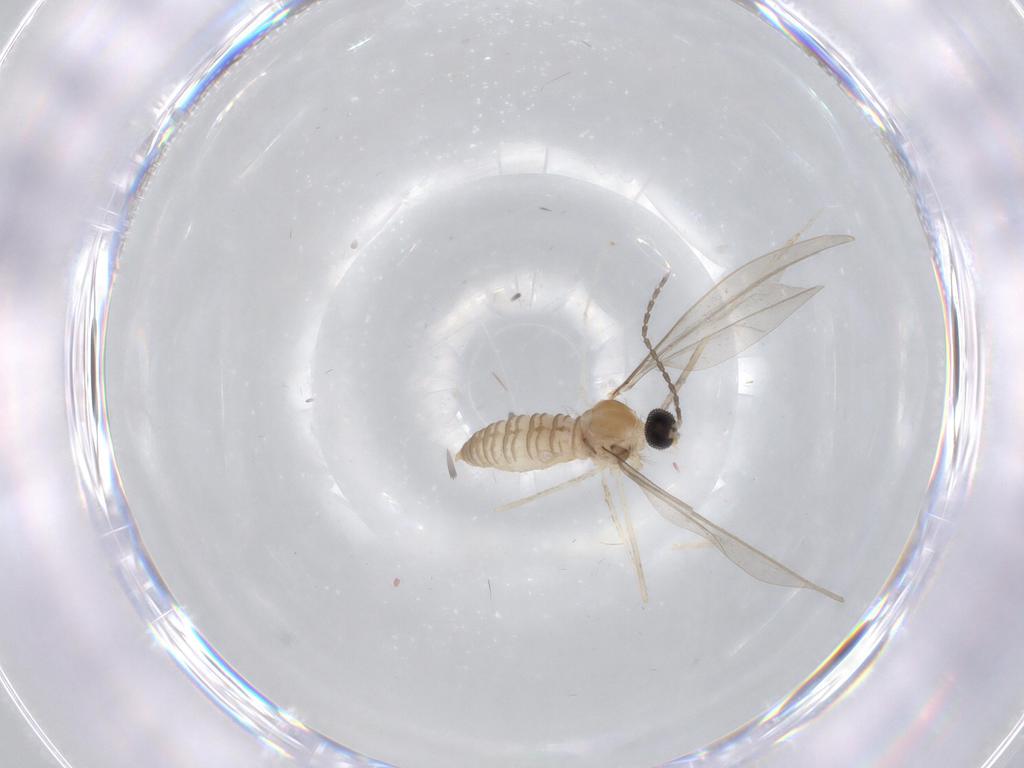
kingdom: Animalia
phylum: Arthropoda
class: Insecta
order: Diptera
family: Cecidomyiidae
